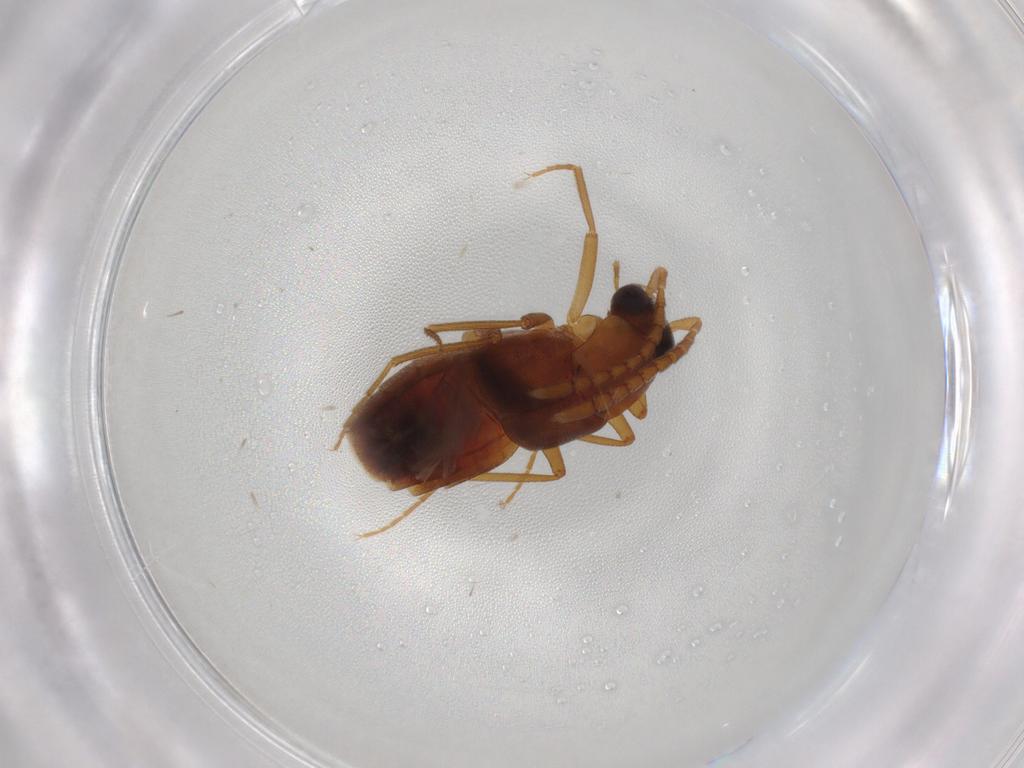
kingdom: Animalia
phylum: Arthropoda
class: Insecta
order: Coleoptera
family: Staphylinidae
